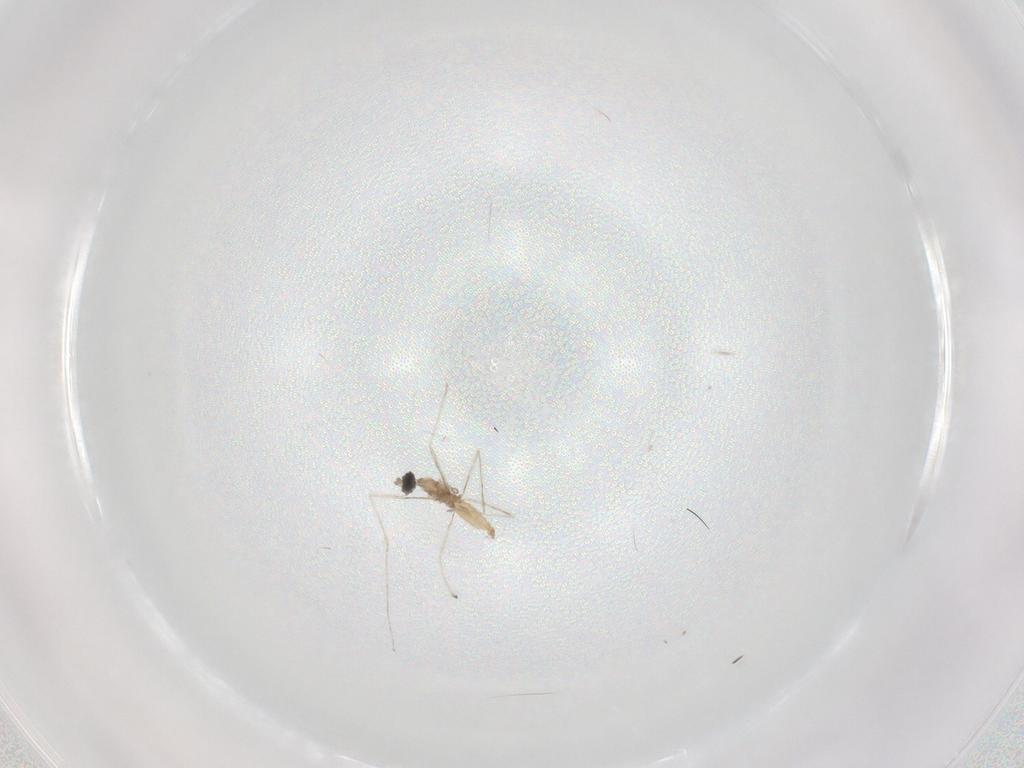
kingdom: Animalia
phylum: Arthropoda
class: Insecta
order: Diptera
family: Cecidomyiidae
